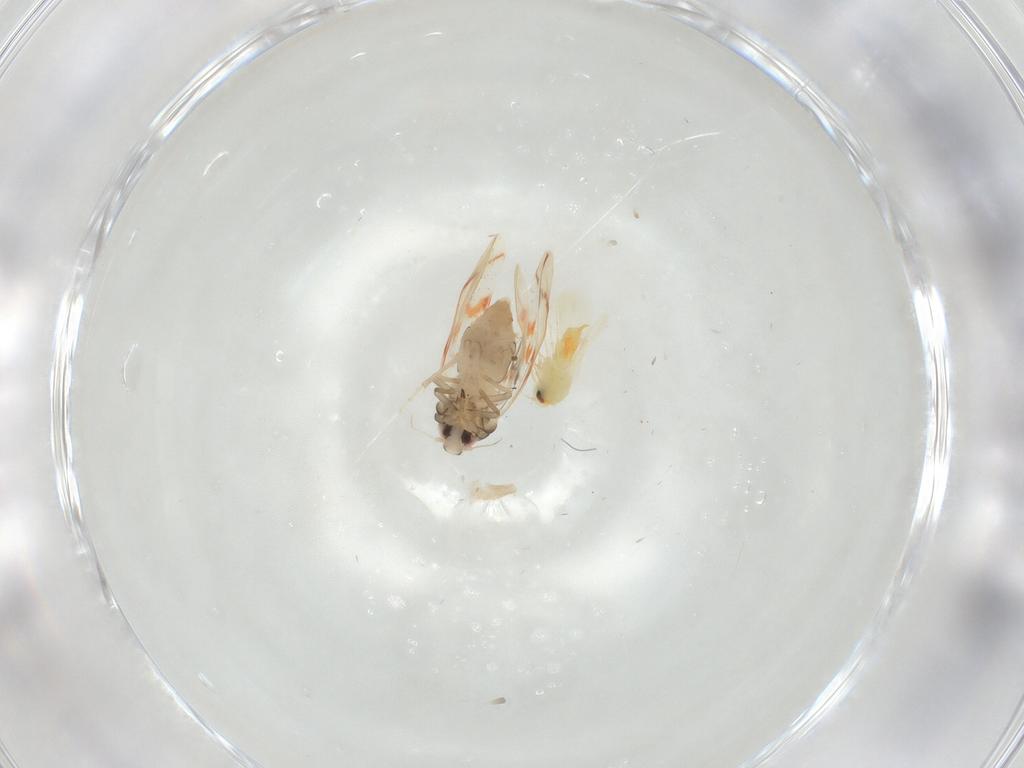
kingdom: Animalia
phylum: Arthropoda
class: Insecta
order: Hemiptera
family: Aleyrodidae
